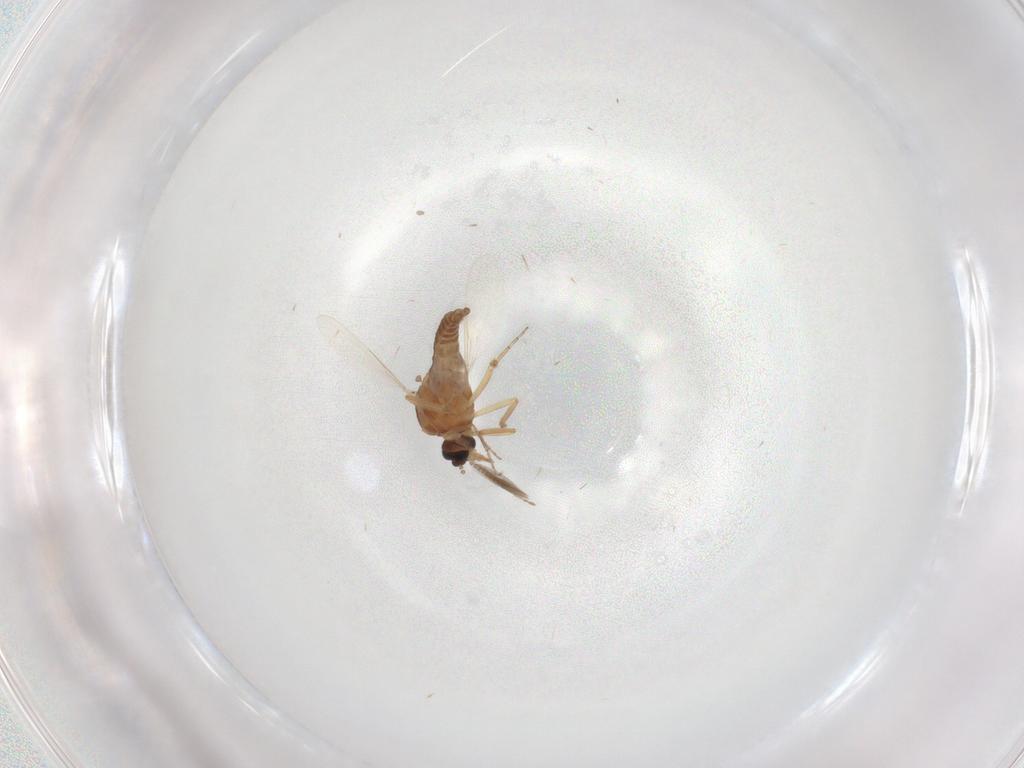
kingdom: Animalia
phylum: Arthropoda
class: Insecta
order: Diptera
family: Ceratopogonidae
